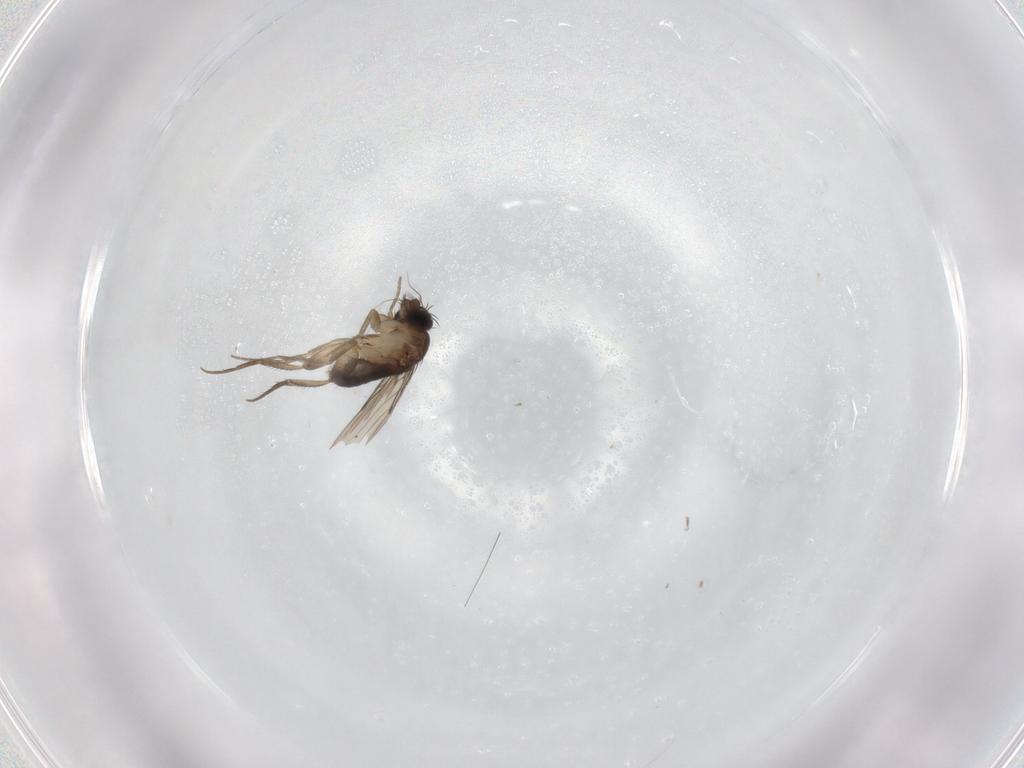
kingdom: Animalia
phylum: Arthropoda
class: Insecta
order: Diptera
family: Phoridae
